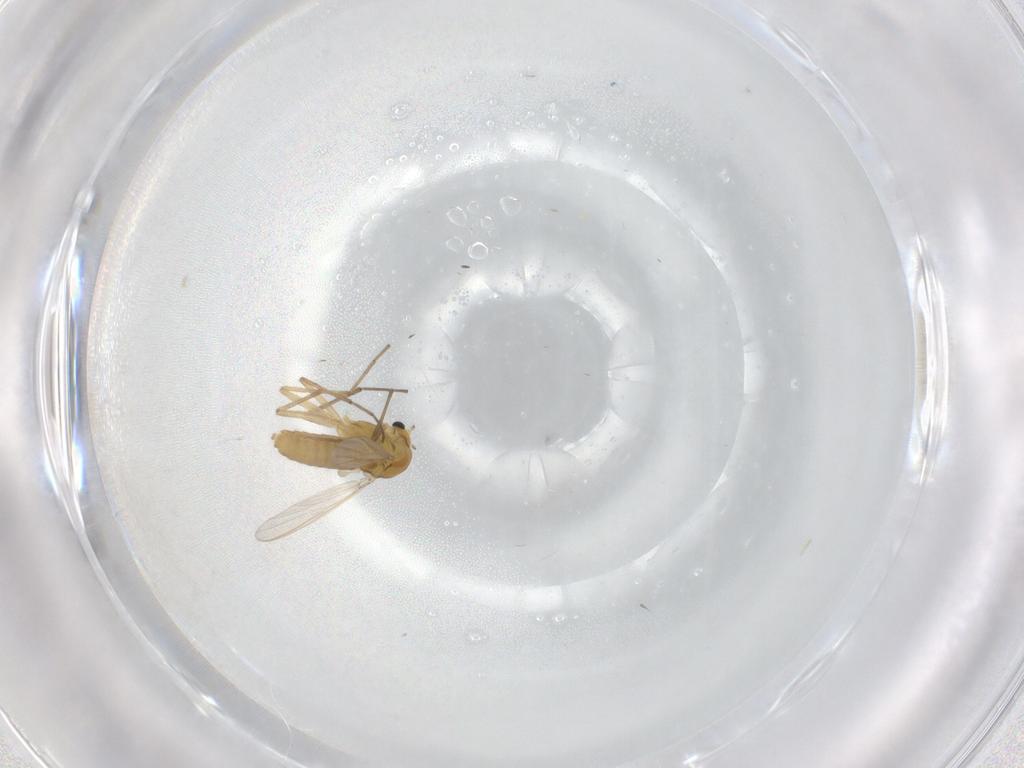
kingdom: Animalia
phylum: Arthropoda
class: Insecta
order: Diptera
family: Chironomidae
